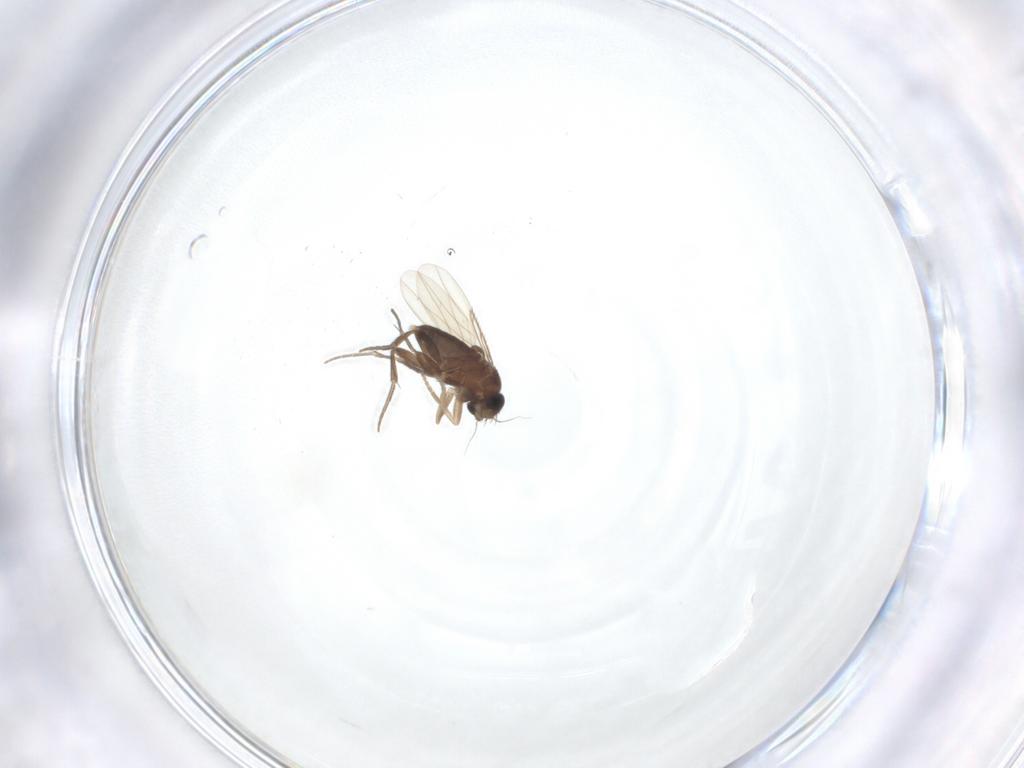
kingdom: Animalia
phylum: Arthropoda
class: Insecta
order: Diptera
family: Phoridae
